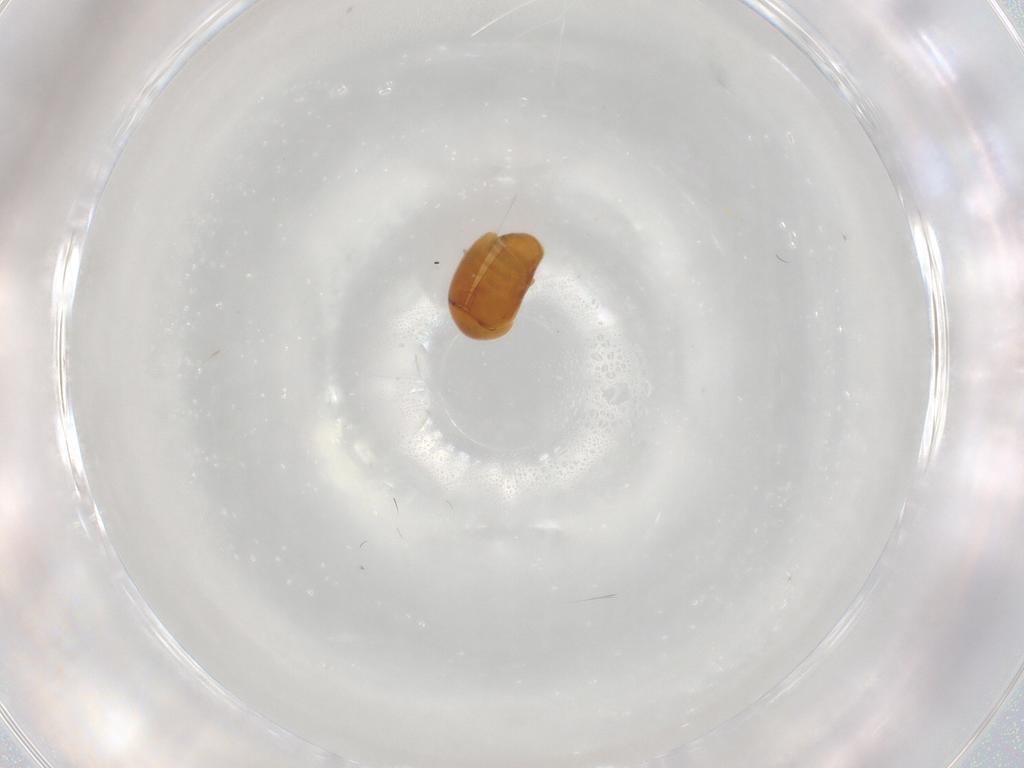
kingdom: Animalia
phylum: Arthropoda
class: Insecta
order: Coleoptera
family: Corylophidae
